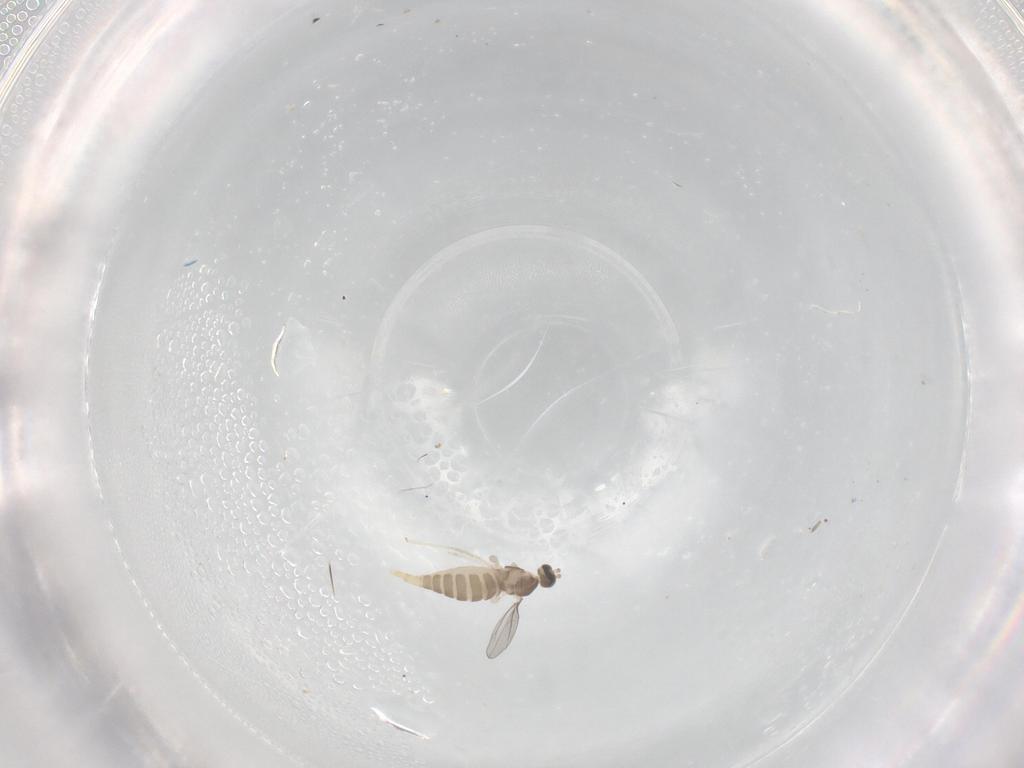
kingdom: Animalia
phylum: Arthropoda
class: Insecta
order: Diptera
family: Cecidomyiidae
